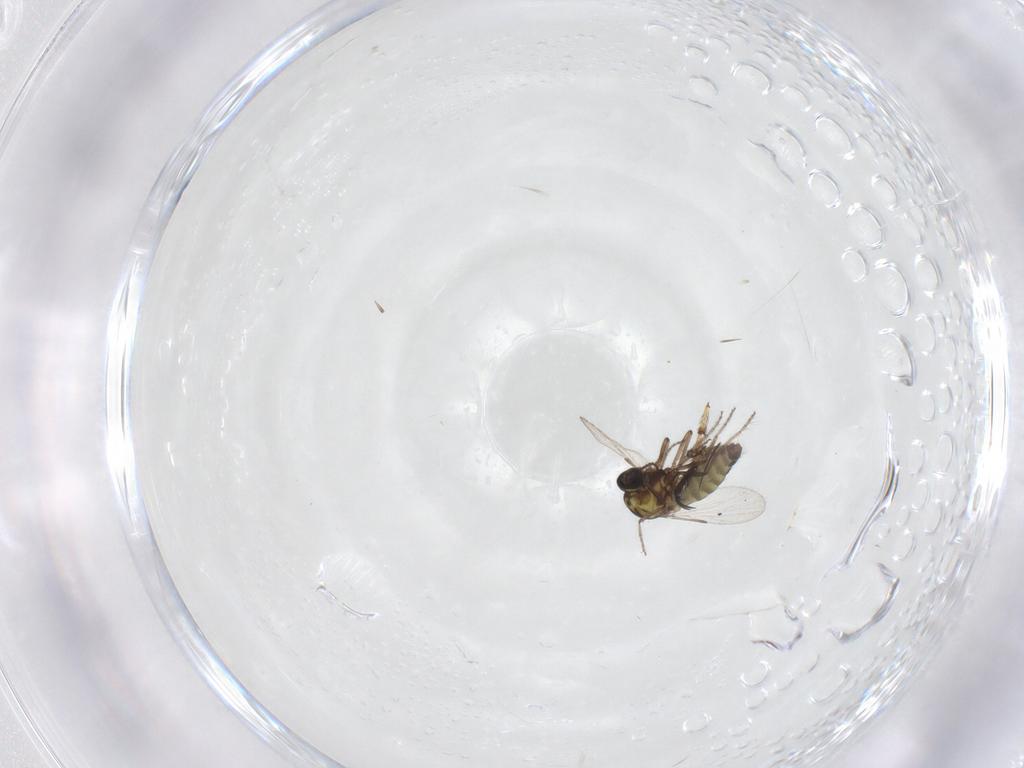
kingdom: Animalia
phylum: Arthropoda
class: Insecta
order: Diptera
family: Ceratopogonidae
